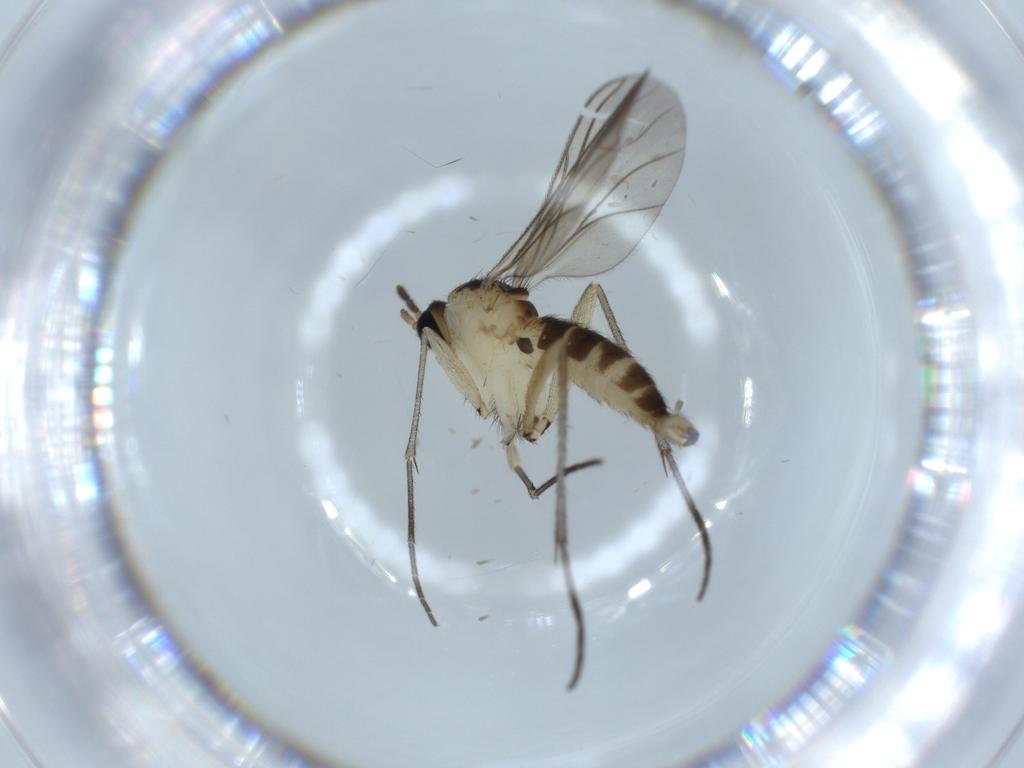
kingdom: Animalia
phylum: Arthropoda
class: Insecta
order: Diptera
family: Sciaridae
